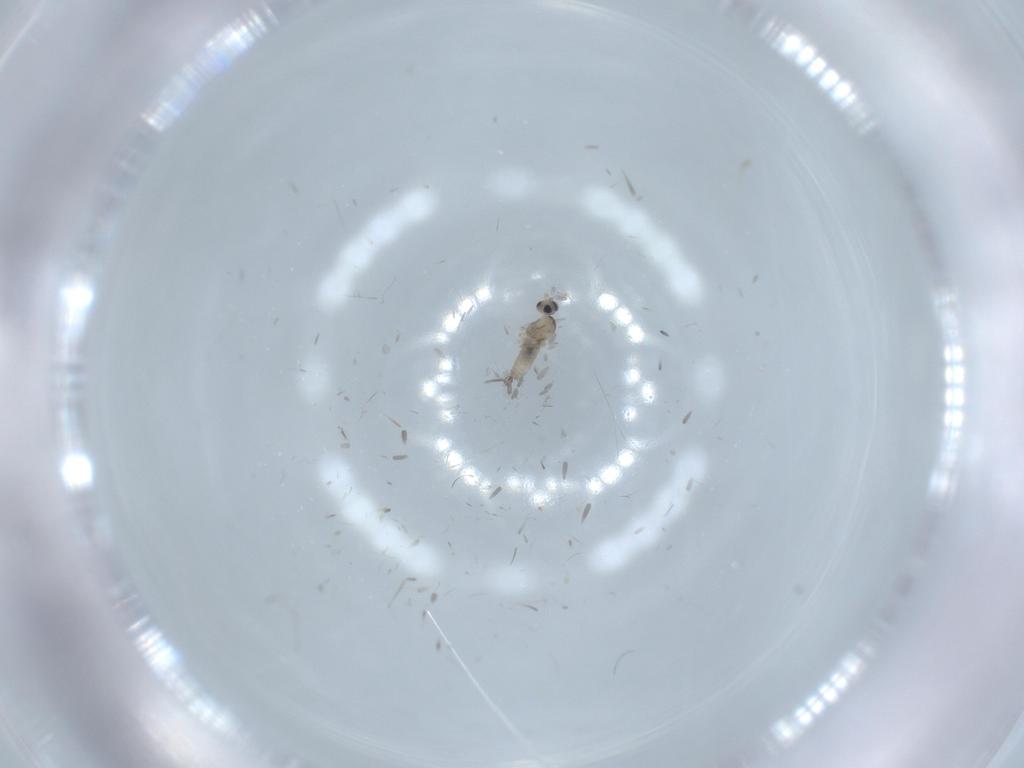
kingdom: Animalia
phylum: Arthropoda
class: Insecta
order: Diptera
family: Cecidomyiidae
